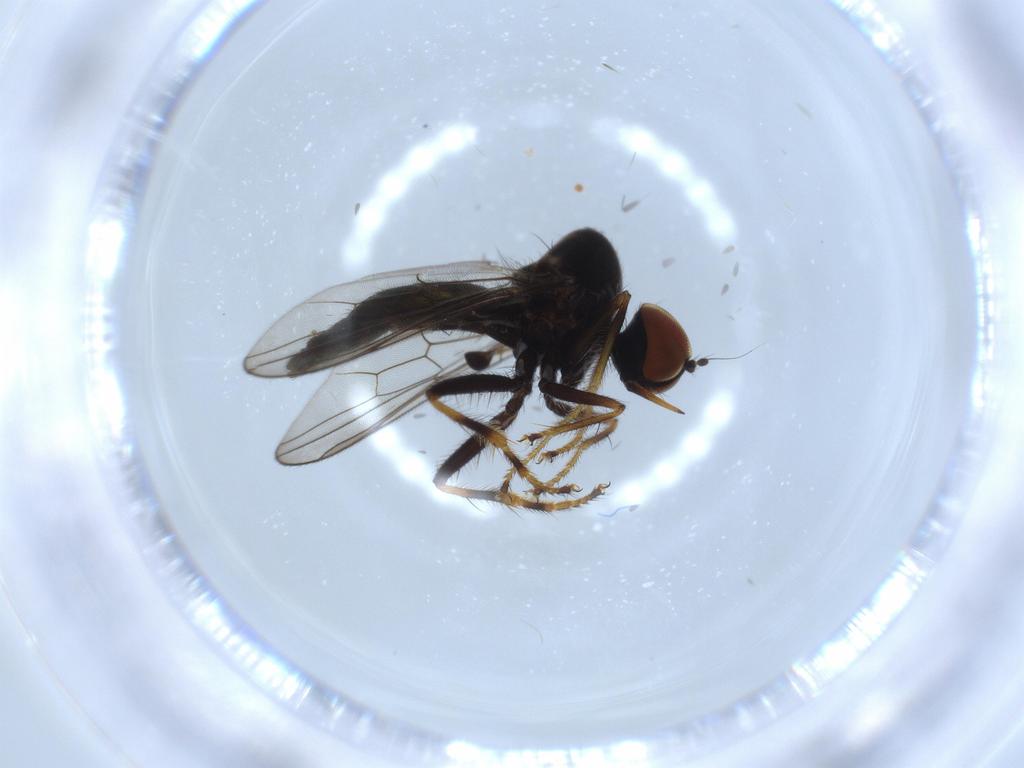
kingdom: Animalia
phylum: Arthropoda
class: Insecta
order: Diptera
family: Hybotidae
